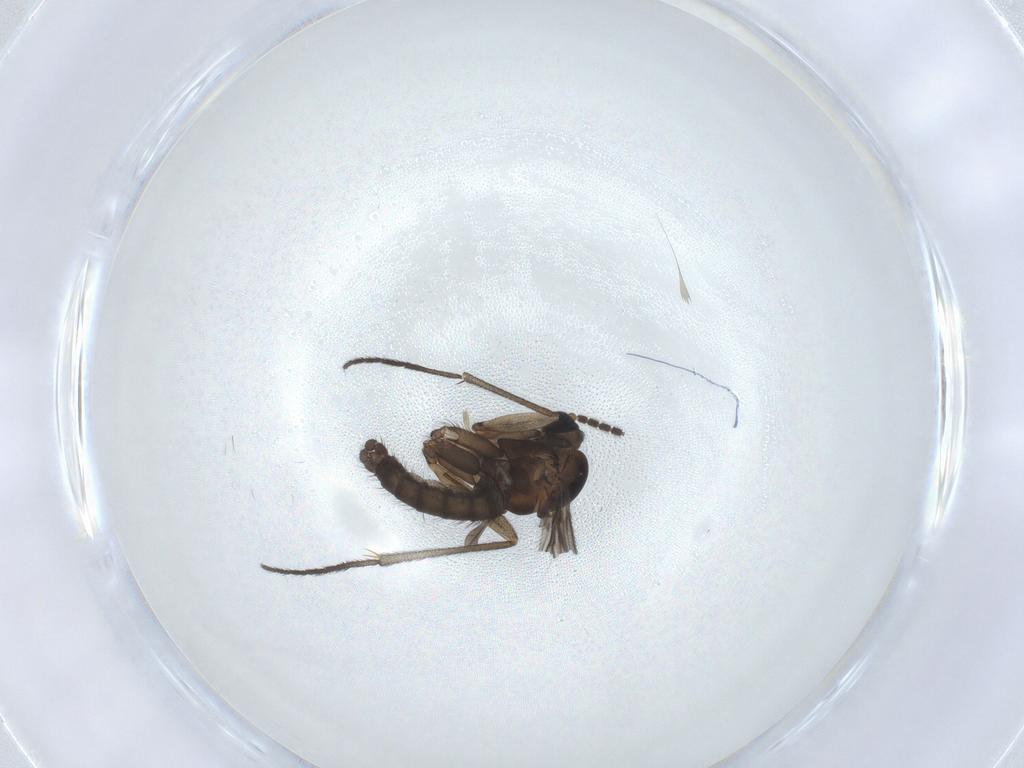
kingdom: Animalia
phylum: Arthropoda
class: Insecta
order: Diptera
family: Sciaridae
